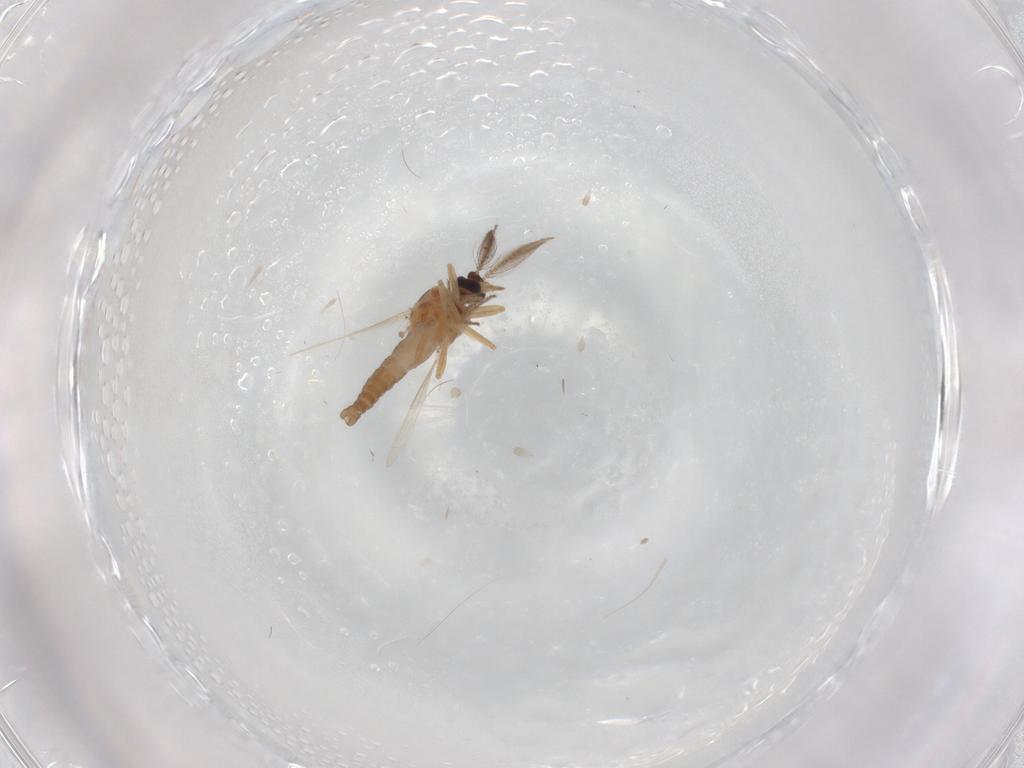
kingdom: Animalia
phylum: Arthropoda
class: Insecta
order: Diptera
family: Ceratopogonidae
